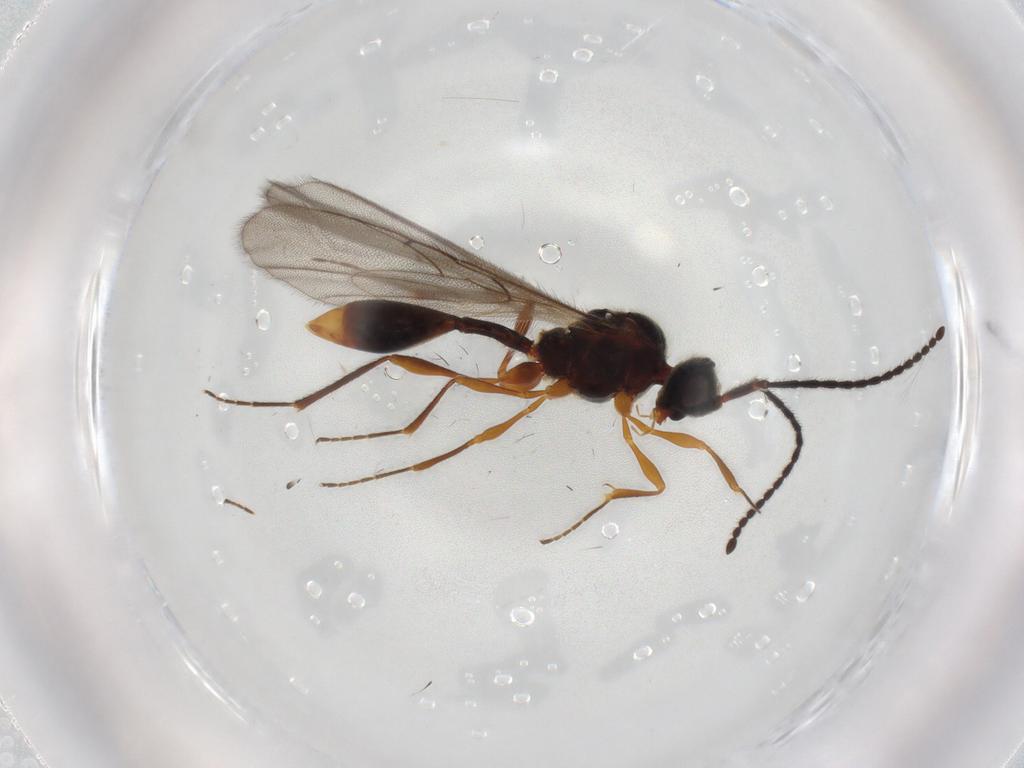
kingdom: Animalia
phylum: Arthropoda
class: Insecta
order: Hymenoptera
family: Diapriidae
